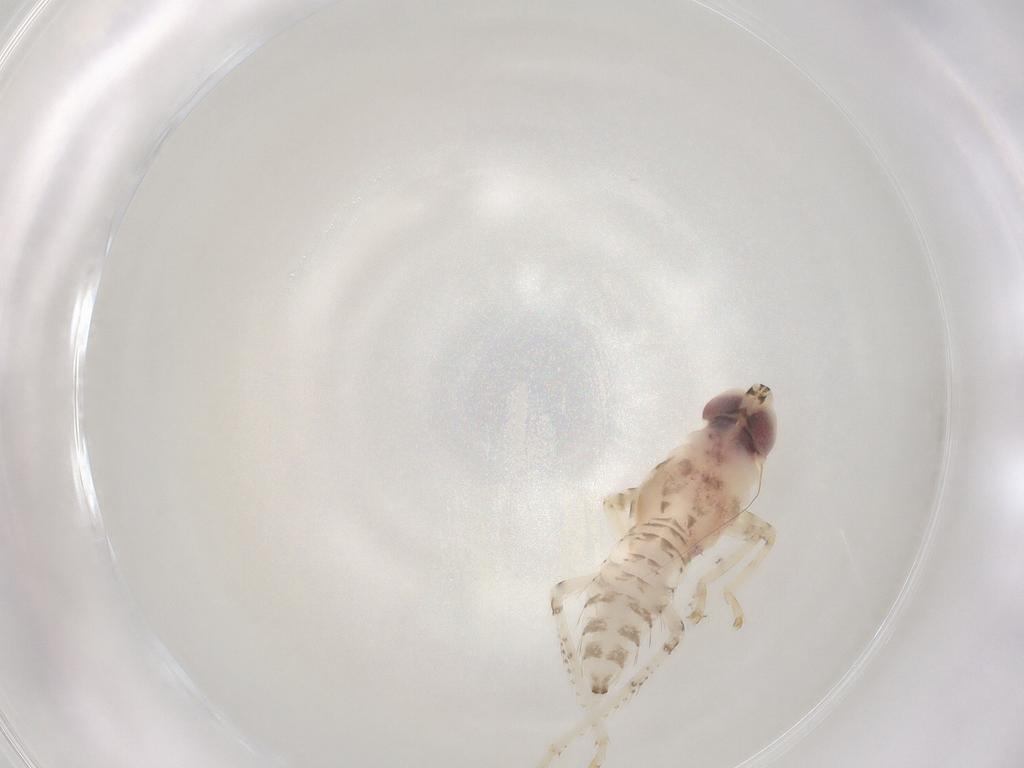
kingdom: Animalia
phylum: Arthropoda
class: Insecta
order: Hemiptera
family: Cicadellidae
